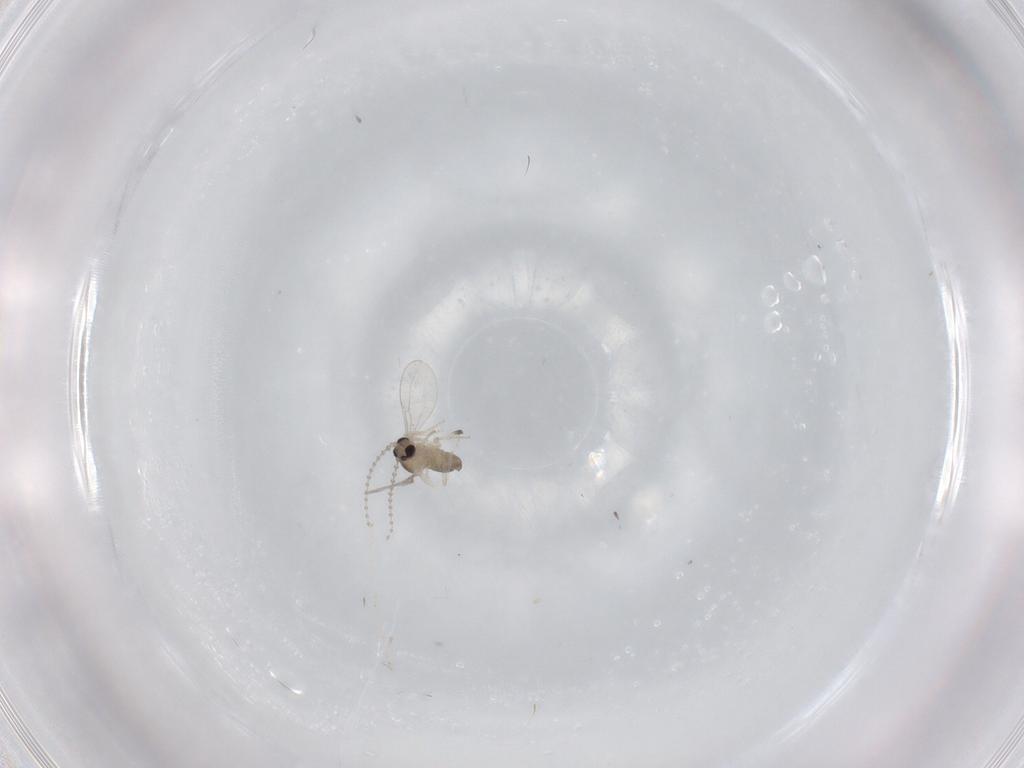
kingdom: Animalia
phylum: Arthropoda
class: Insecta
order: Diptera
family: Cecidomyiidae
